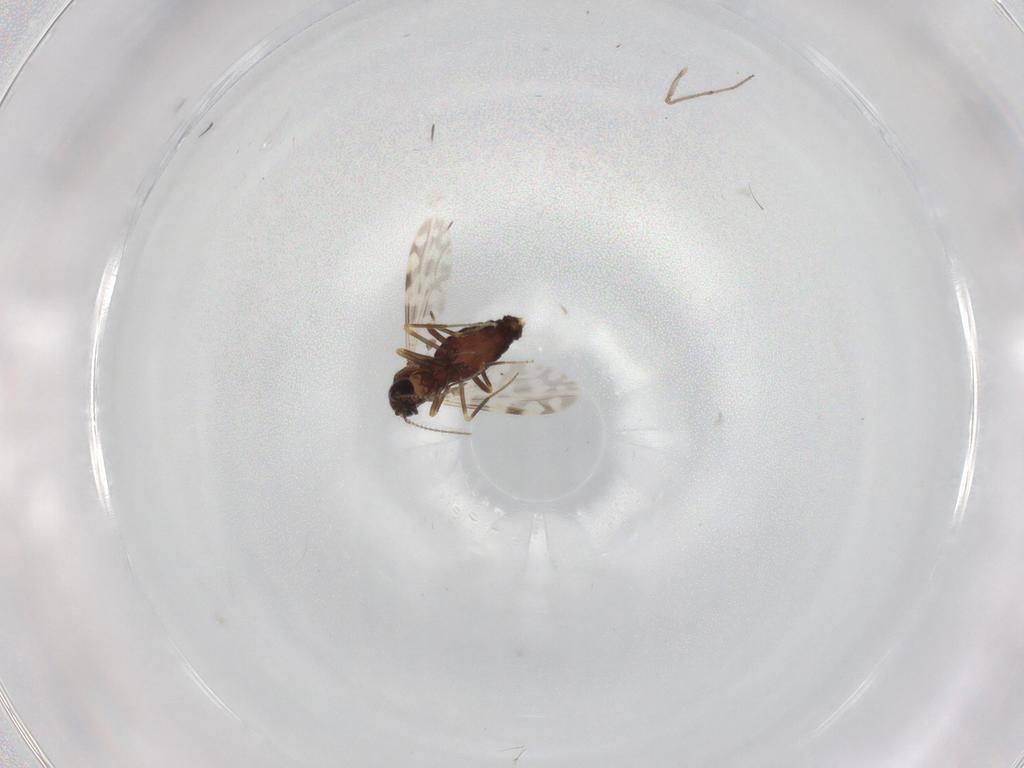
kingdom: Animalia
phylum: Arthropoda
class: Insecta
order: Diptera
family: Ceratopogonidae
